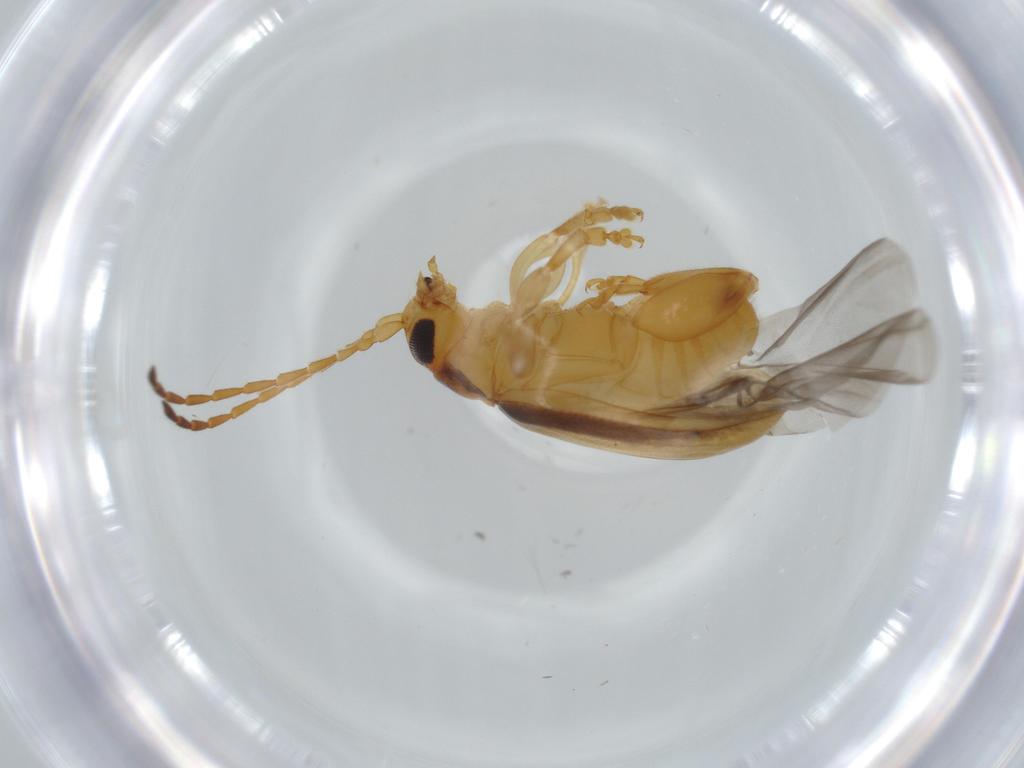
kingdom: Animalia
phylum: Arthropoda
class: Insecta
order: Coleoptera
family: Chrysomelidae
